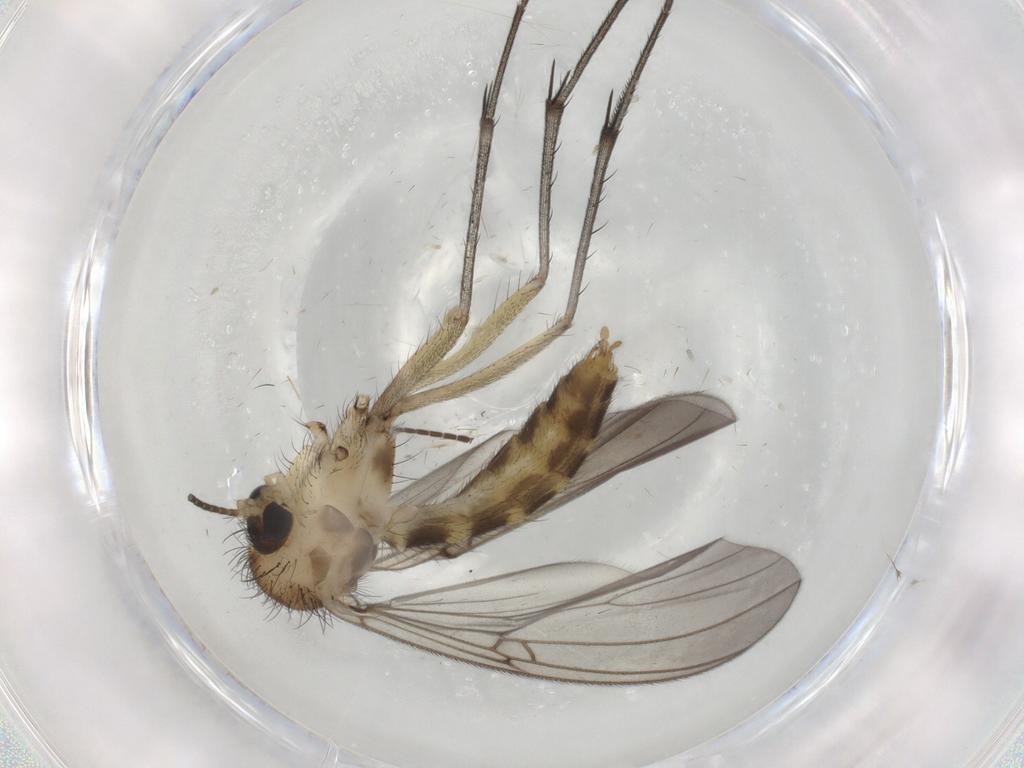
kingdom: Animalia
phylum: Arthropoda
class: Insecta
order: Diptera
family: Mycetophilidae
